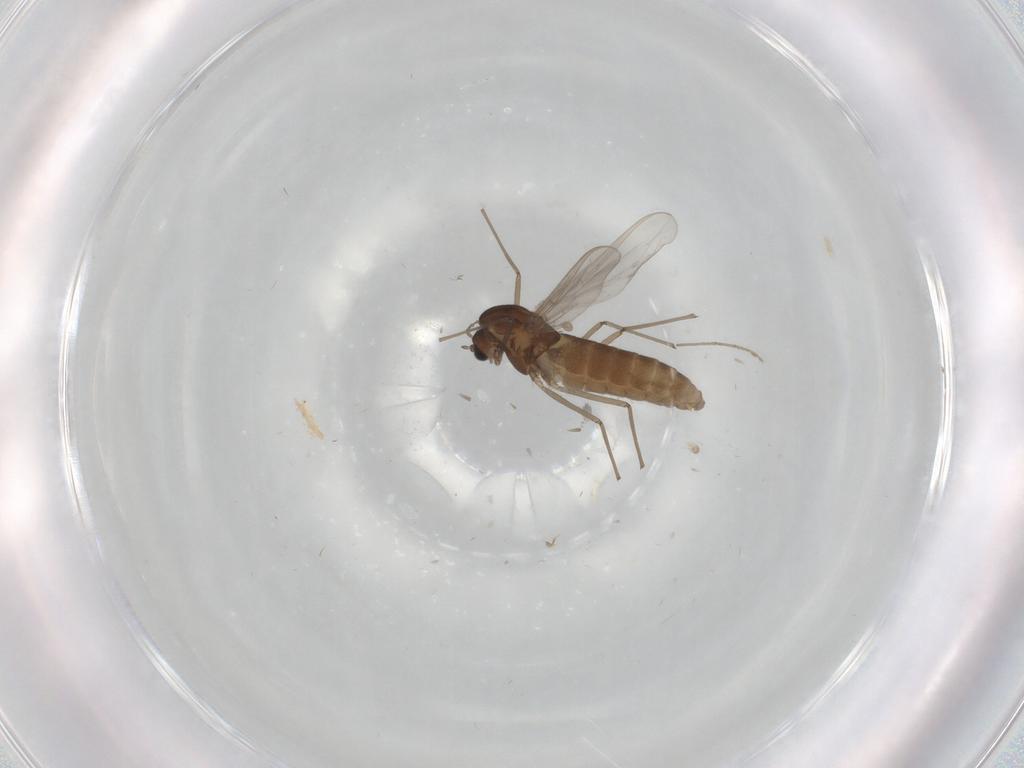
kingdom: Animalia
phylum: Arthropoda
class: Insecta
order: Diptera
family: Chironomidae
